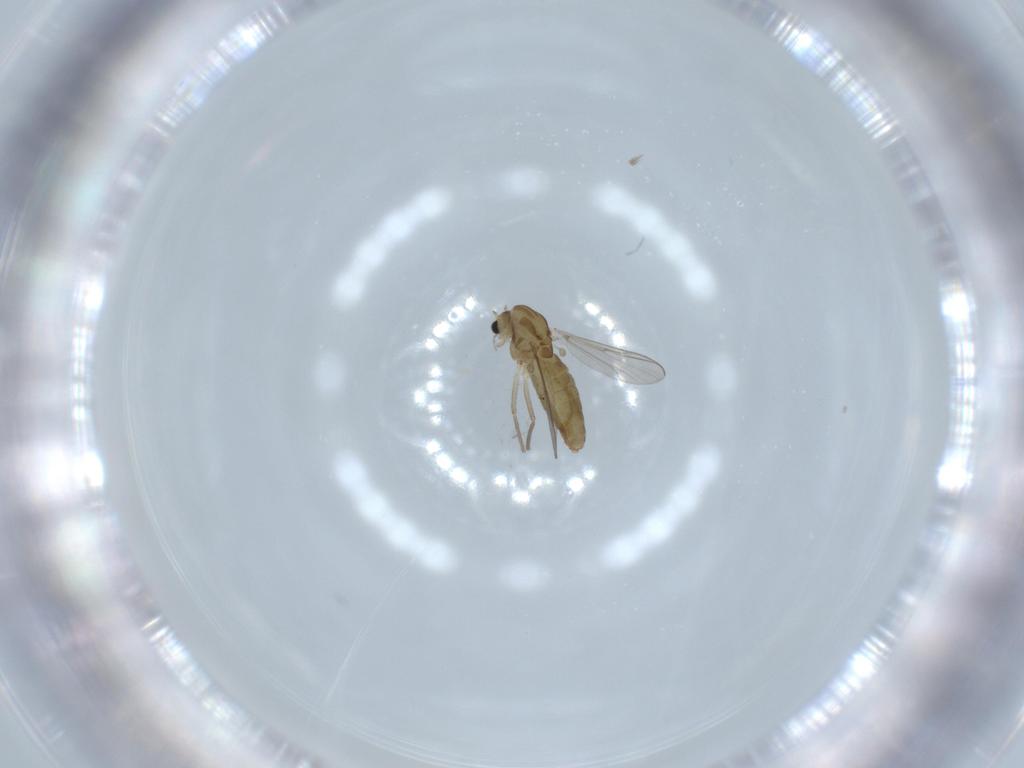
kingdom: Animalia
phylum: Arthropoda
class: Insecta
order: Diptera
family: Chironomidae
